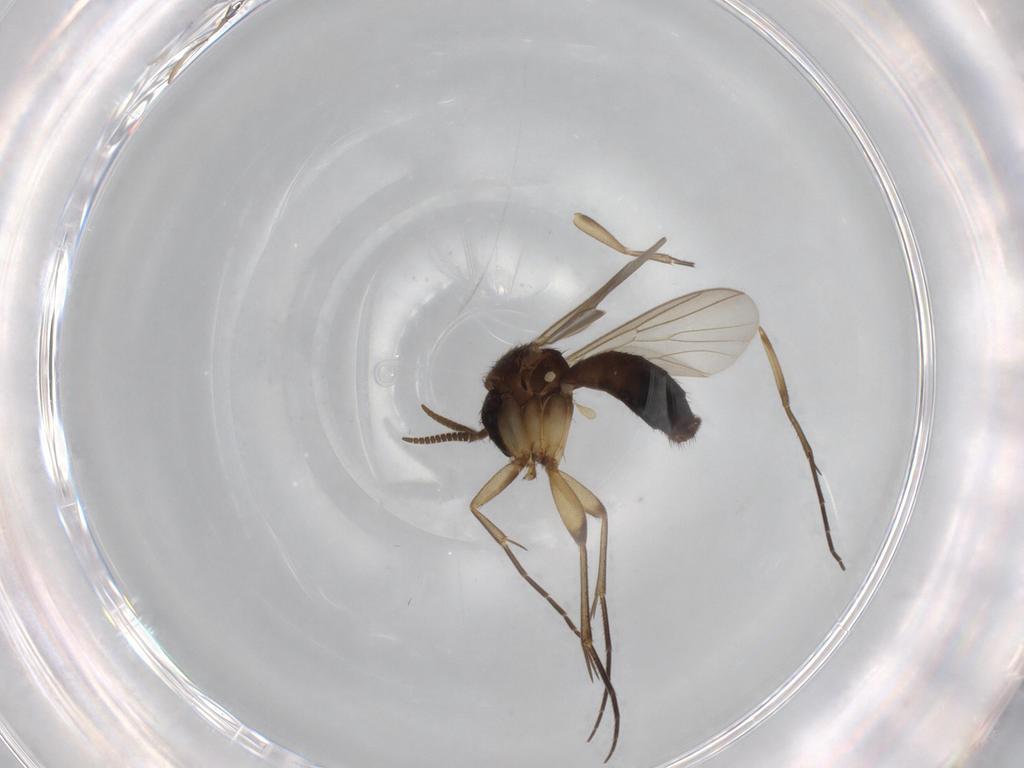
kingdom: Animalia
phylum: Arthropoda
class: Insecta
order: Diptera
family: Mycetophilidae
